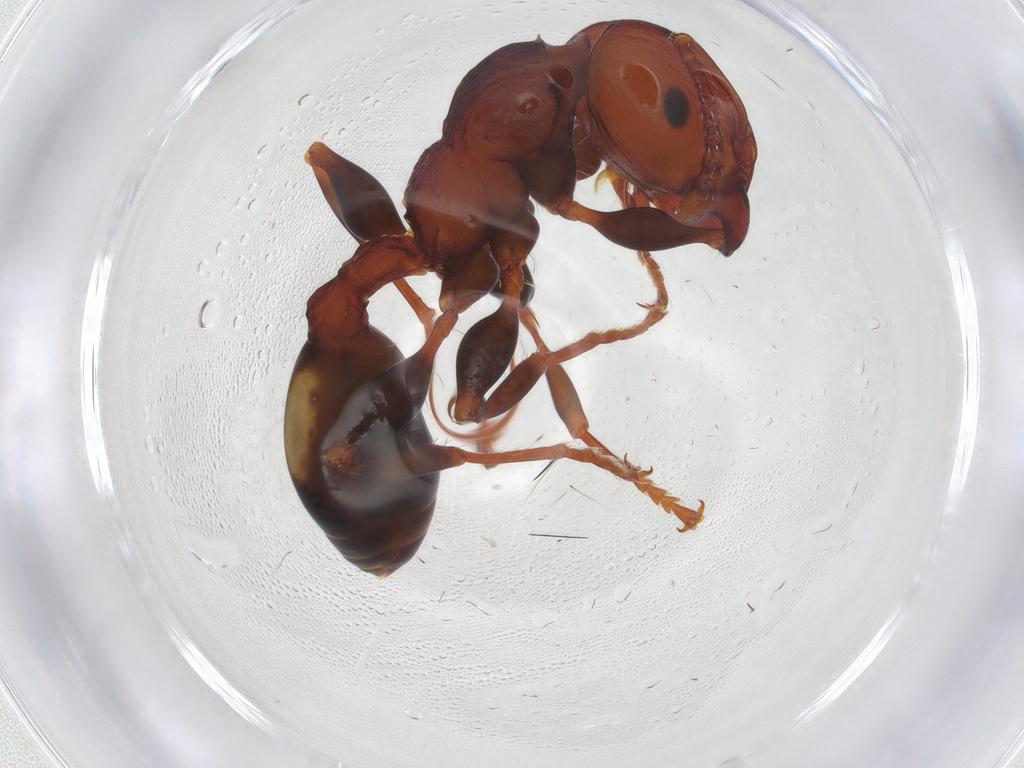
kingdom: Animalia
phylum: Arthropoda
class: Insecta
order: Hymenoptera
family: Formicidae
